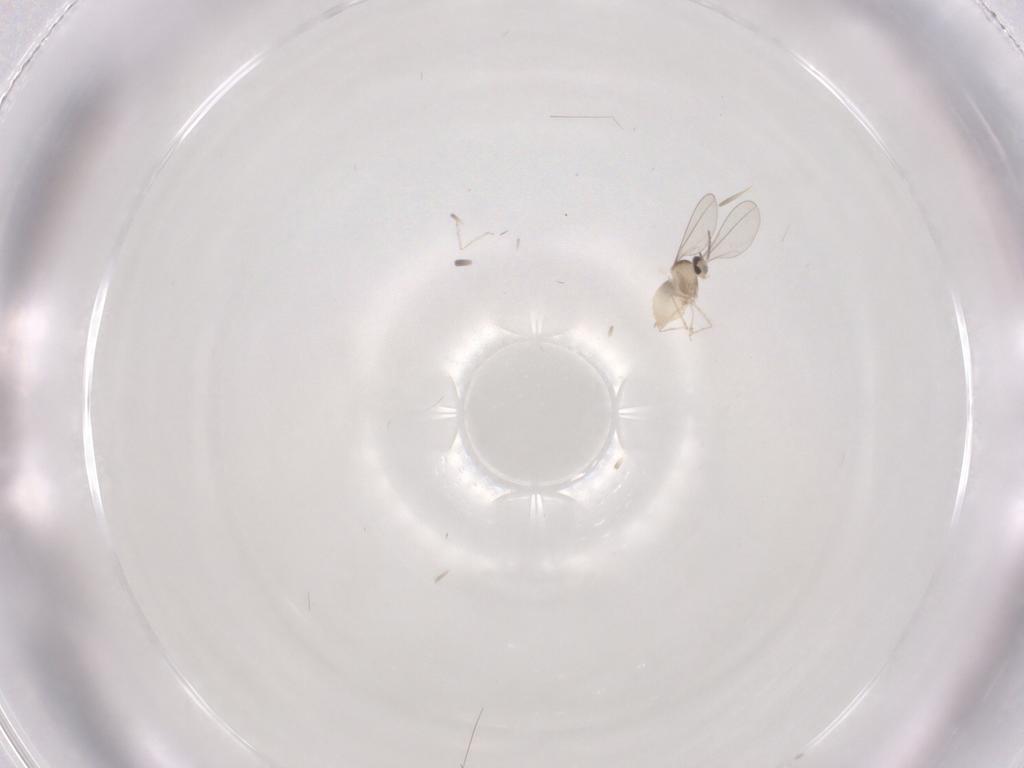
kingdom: Animalia
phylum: Arthropoda
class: Insecta
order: Diptera
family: Cecidomyiidae
